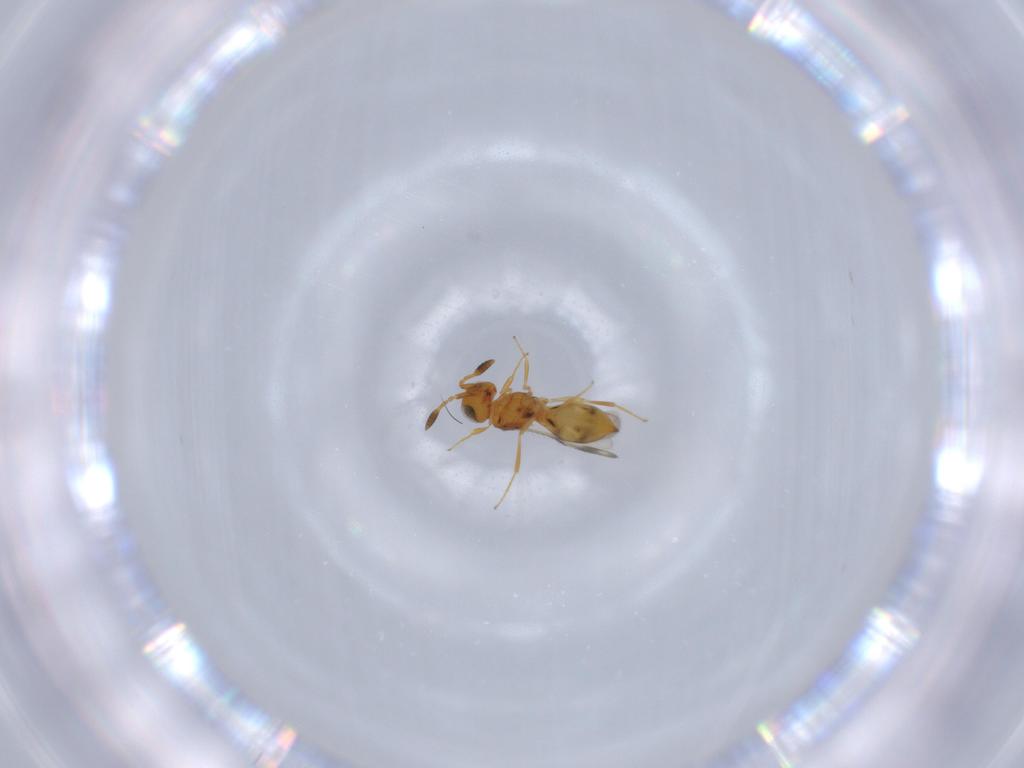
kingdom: Animalia
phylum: Arthropoda
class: Insecta
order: Hymenoptera
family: Scelionidae
